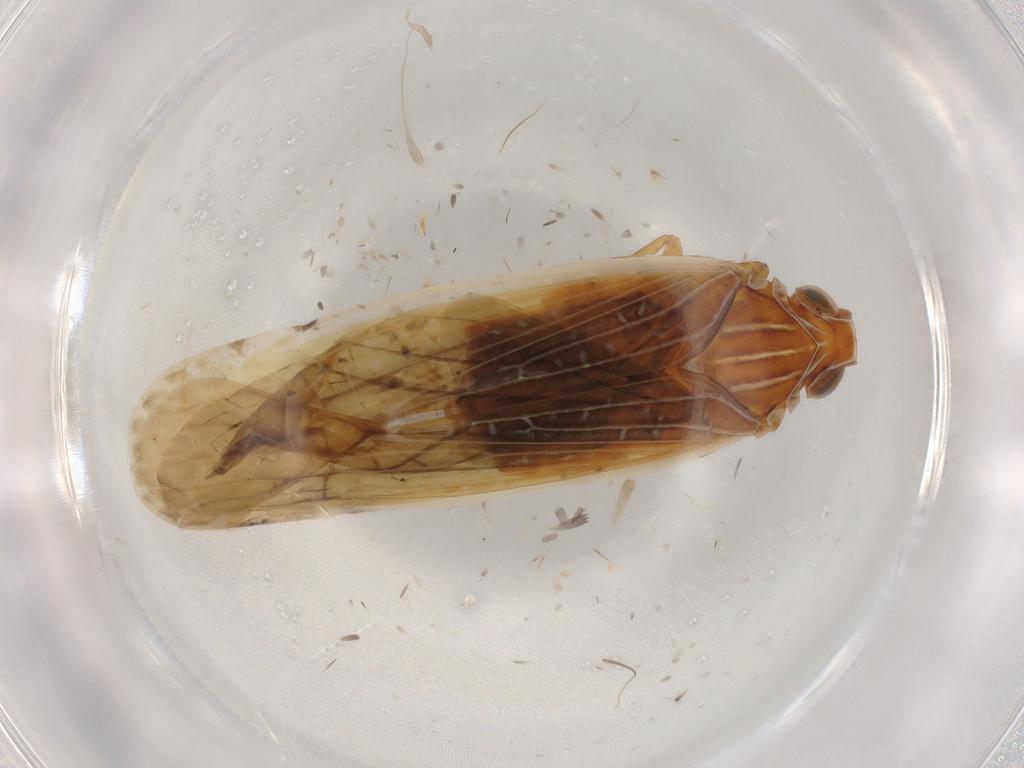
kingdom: Animalia
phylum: Arthropoda
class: Insecta
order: Hemiptera
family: Achilidae
